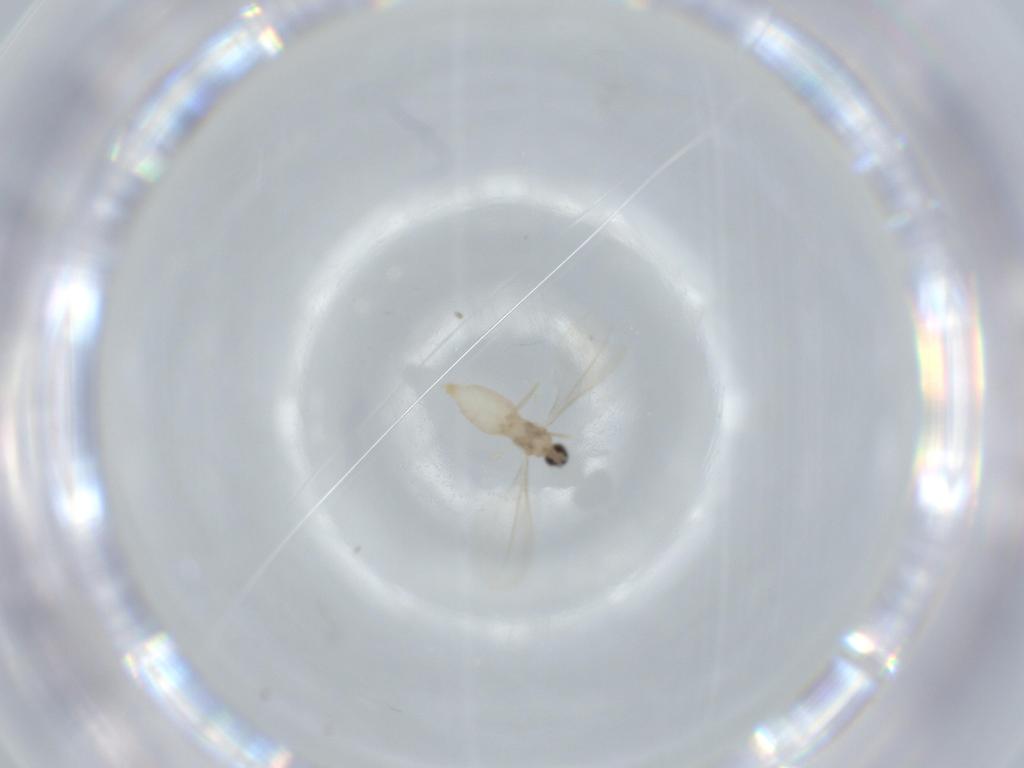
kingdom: Animalia
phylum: Arthropoda
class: Insecta
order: Diptera
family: Cecidomyiidae
